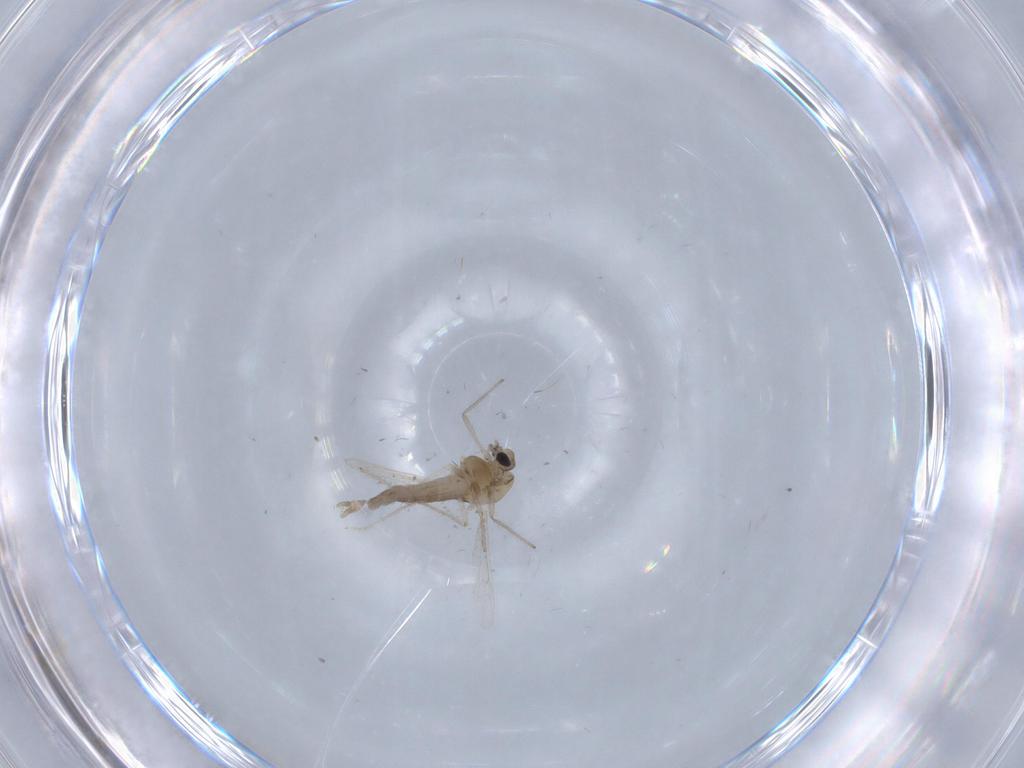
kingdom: Animalia
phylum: Arthropoda
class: Insecta
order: Diptera
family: Chironomidae
